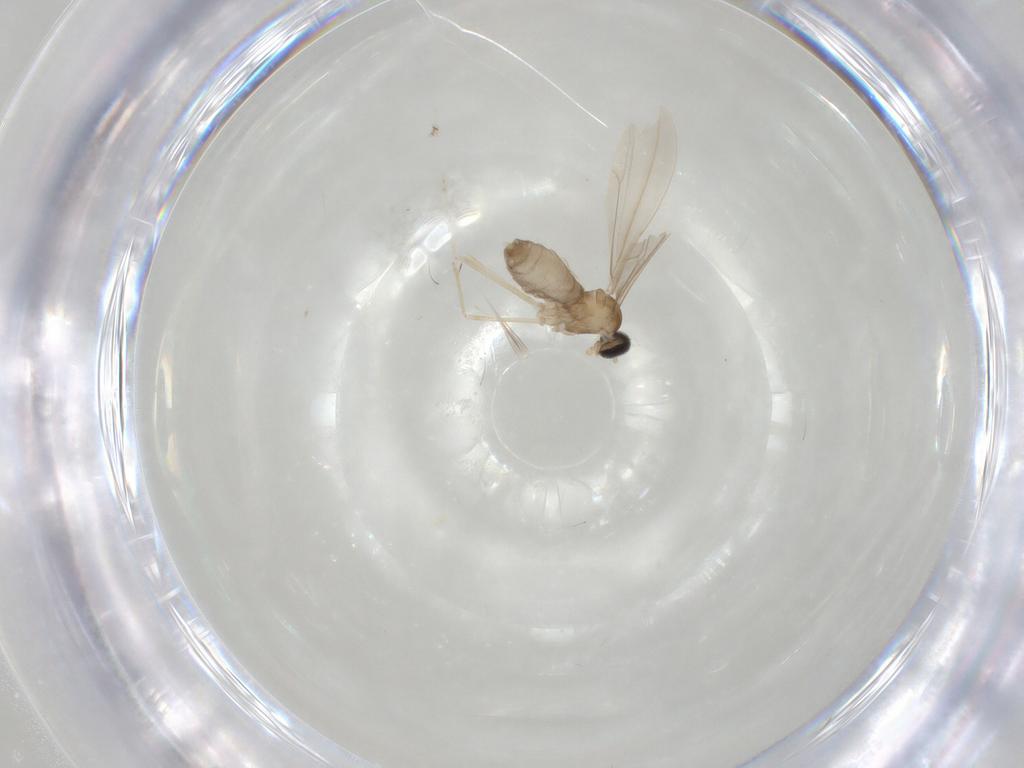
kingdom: Animalia
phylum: Arthropoda
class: Insecta
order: Diptera
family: Cecidomyiidae
